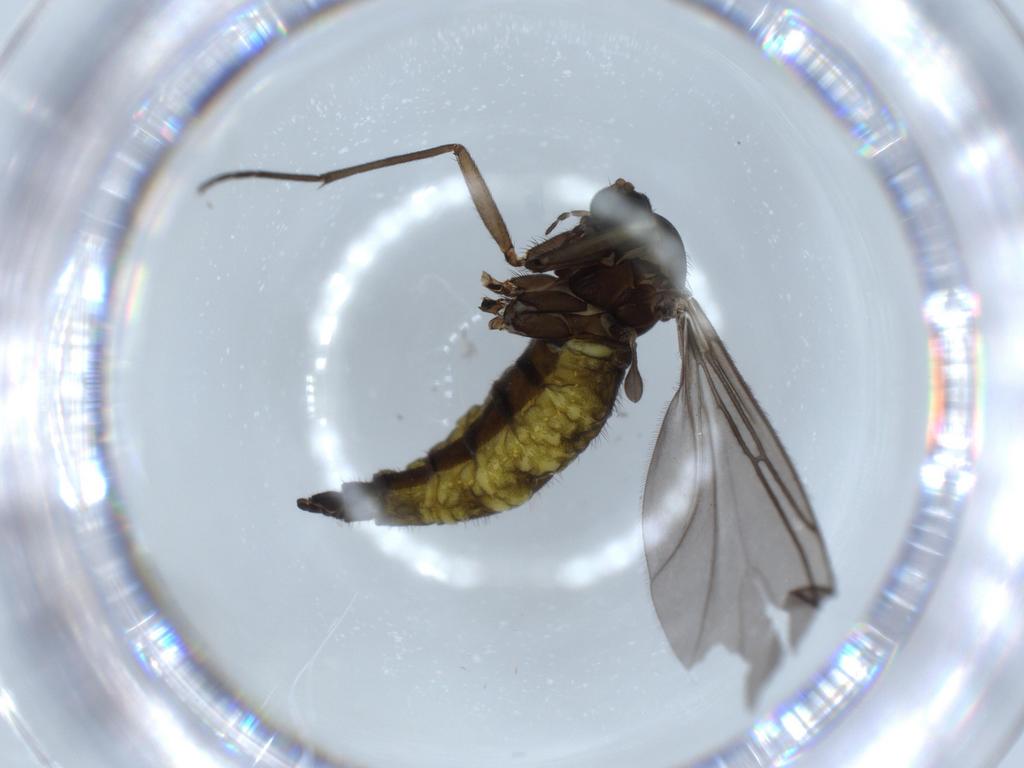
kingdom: Animalia
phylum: Arthropoda
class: Insecta
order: Diptera
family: Sciaridae
